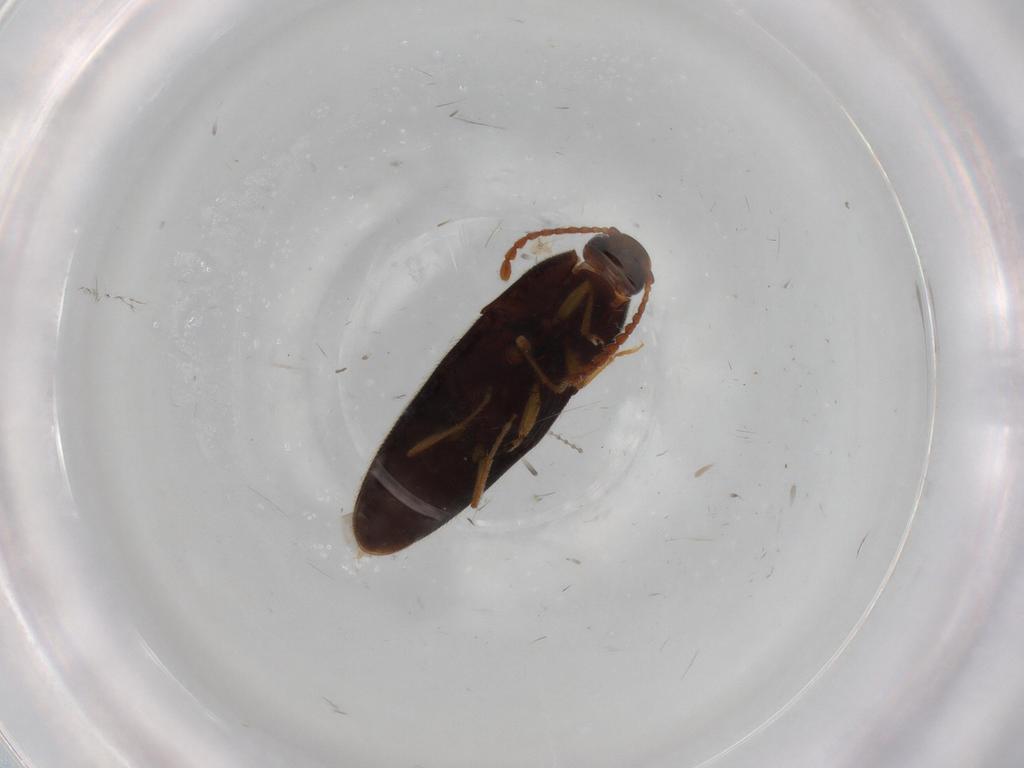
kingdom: Animalia
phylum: Arthropoda
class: Insecta
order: Coleoptera
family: Elateridae
